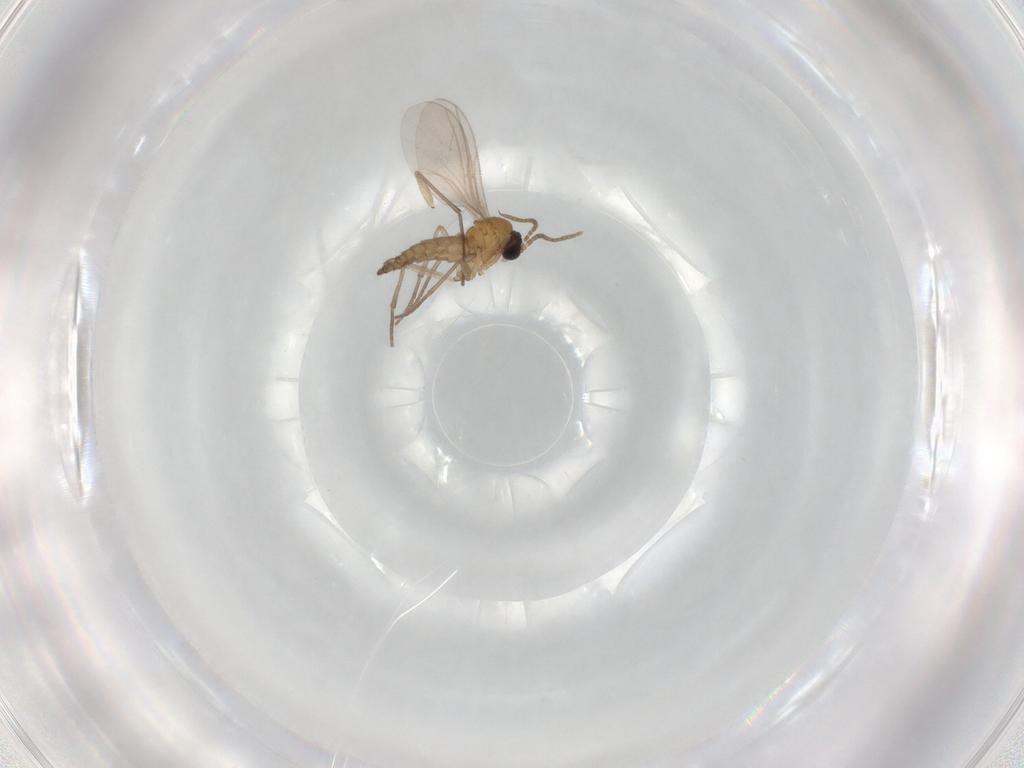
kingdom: Animalia
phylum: Arthropoda
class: Insecta
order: Diptera
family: Sciaridae
